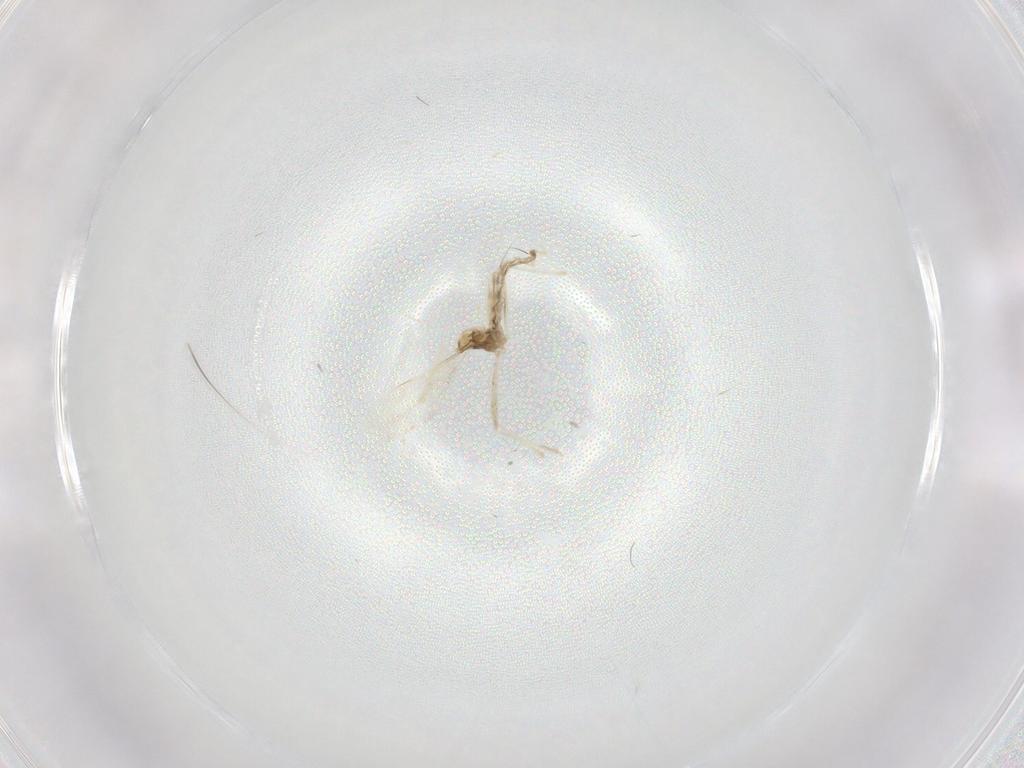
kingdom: Animalia
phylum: Arthropoda
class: Insecta
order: Diptera
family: Cecidomyiidae
